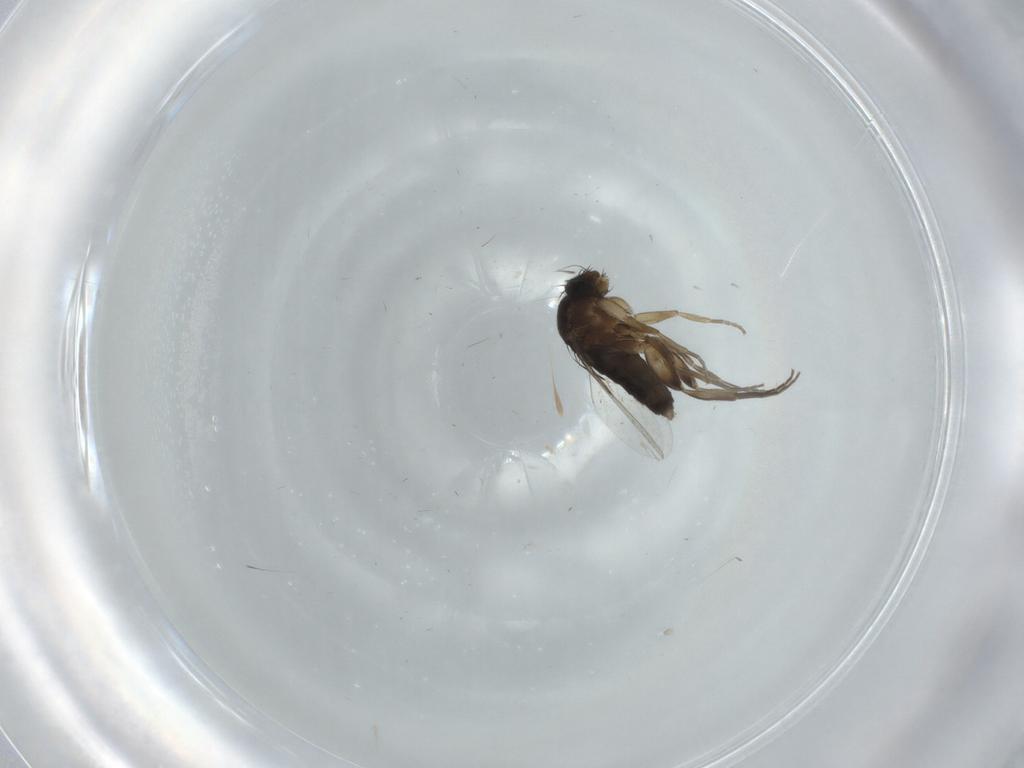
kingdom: Animalia
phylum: Arthropoda
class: Insecta
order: Diptera
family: Phoridae
